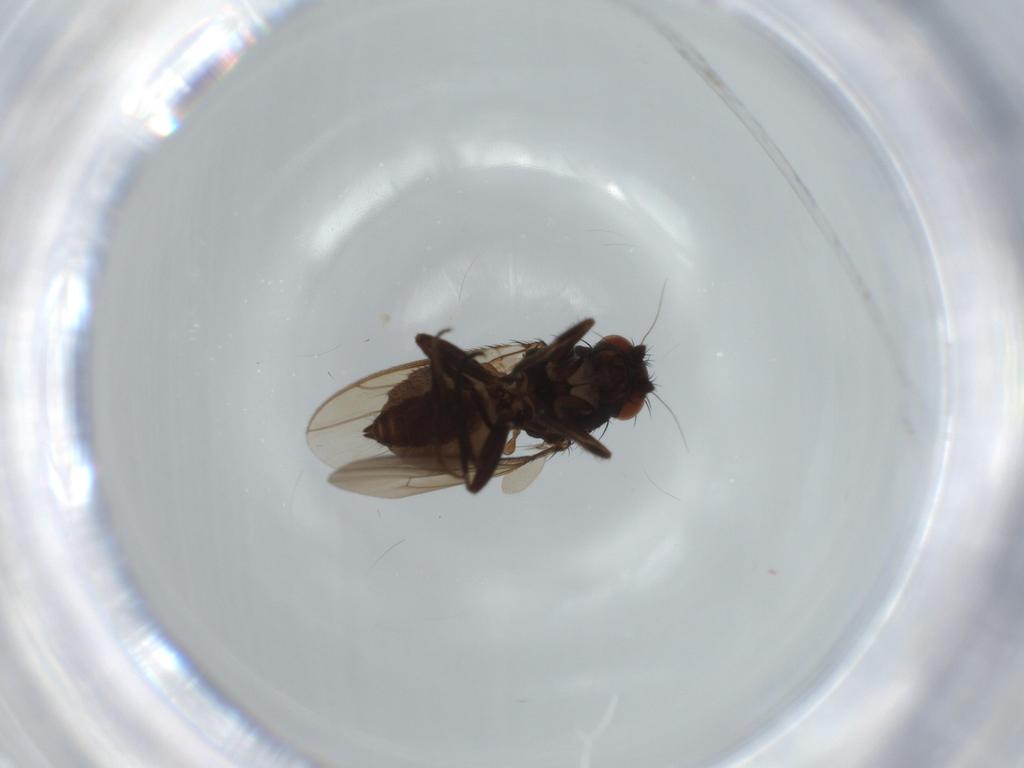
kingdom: Animalia
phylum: Arthropoda
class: Insecta
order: Diptera
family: Sphaeroceridae
